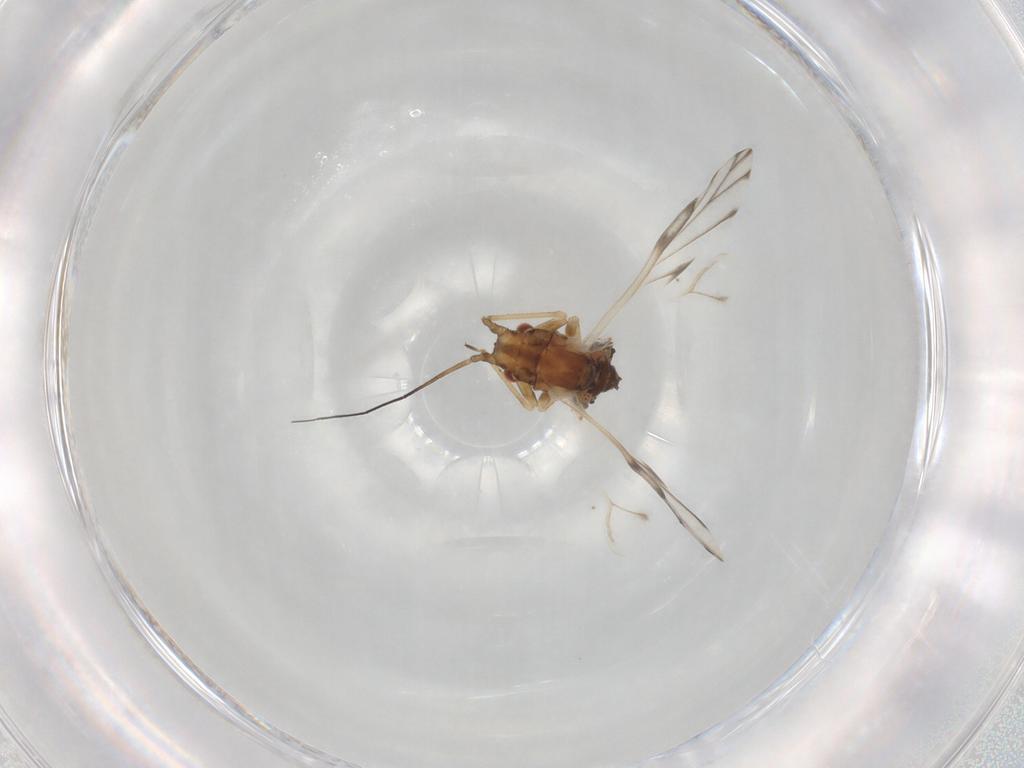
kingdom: Animalia
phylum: Arthropoda
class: Insecta
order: Hemiptera
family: Aphididae
